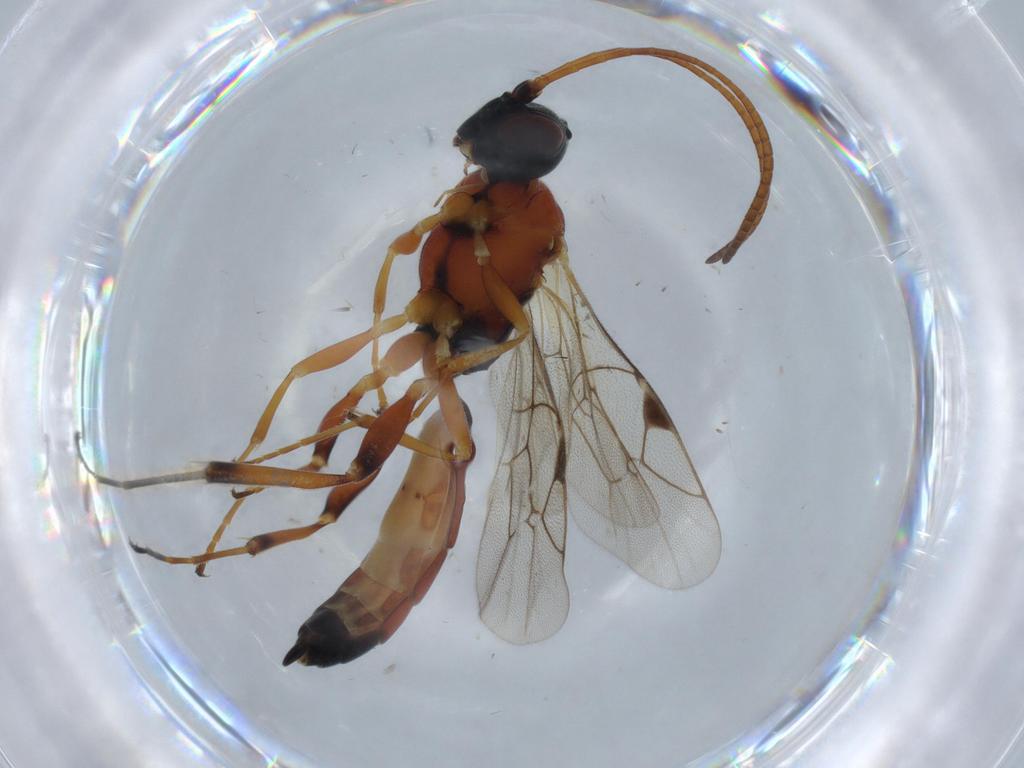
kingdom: Animalia
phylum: Arthropoda
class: Insecta
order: Hymenoptera
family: Ichneumonidae
